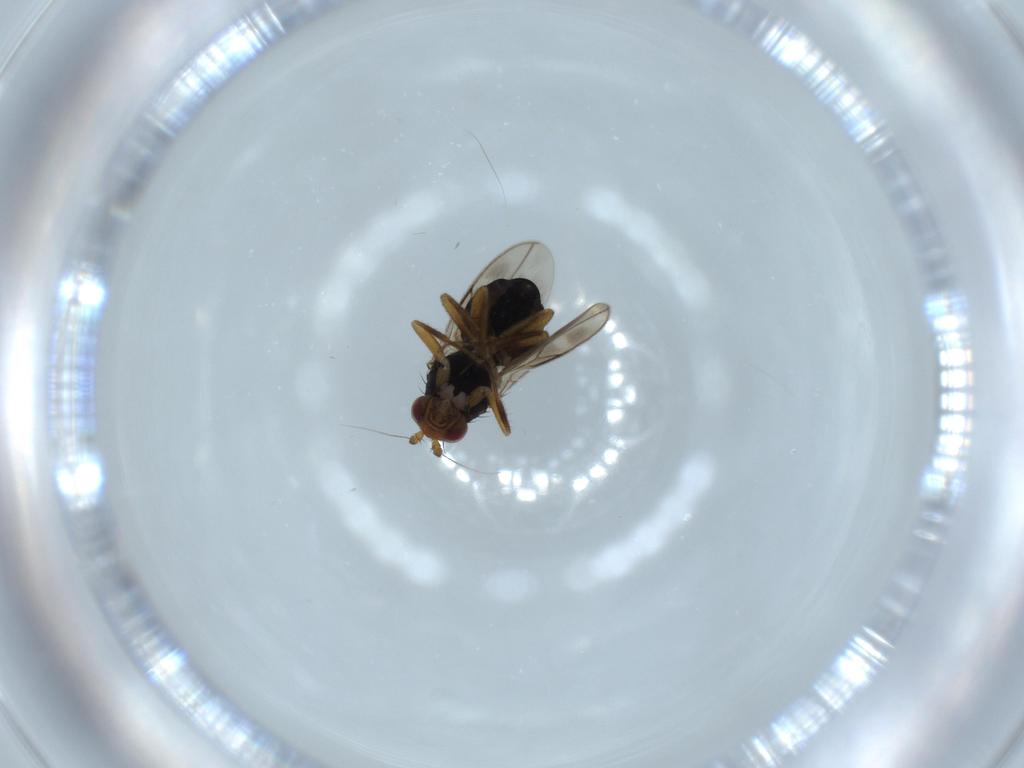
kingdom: Animalia
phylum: Arthropoda
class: Insecta
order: Diptera
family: Sphaeroceridae
